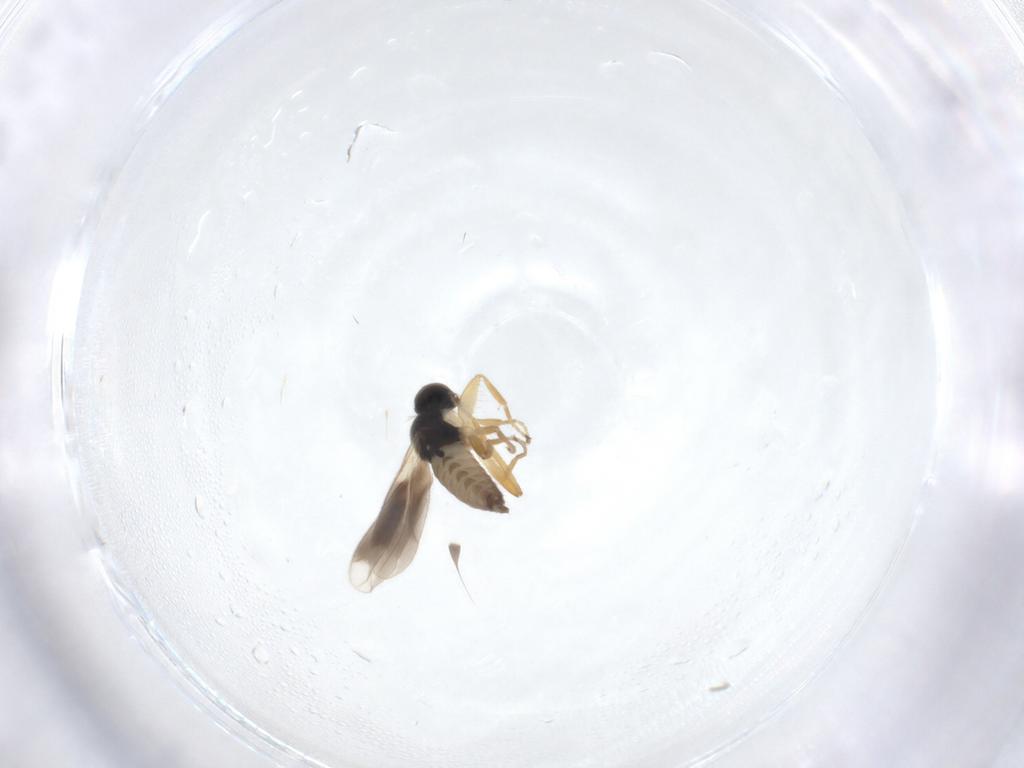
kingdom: Animalia
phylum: Arthropoda
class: Insecta
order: Diptera
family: Hybotidae
